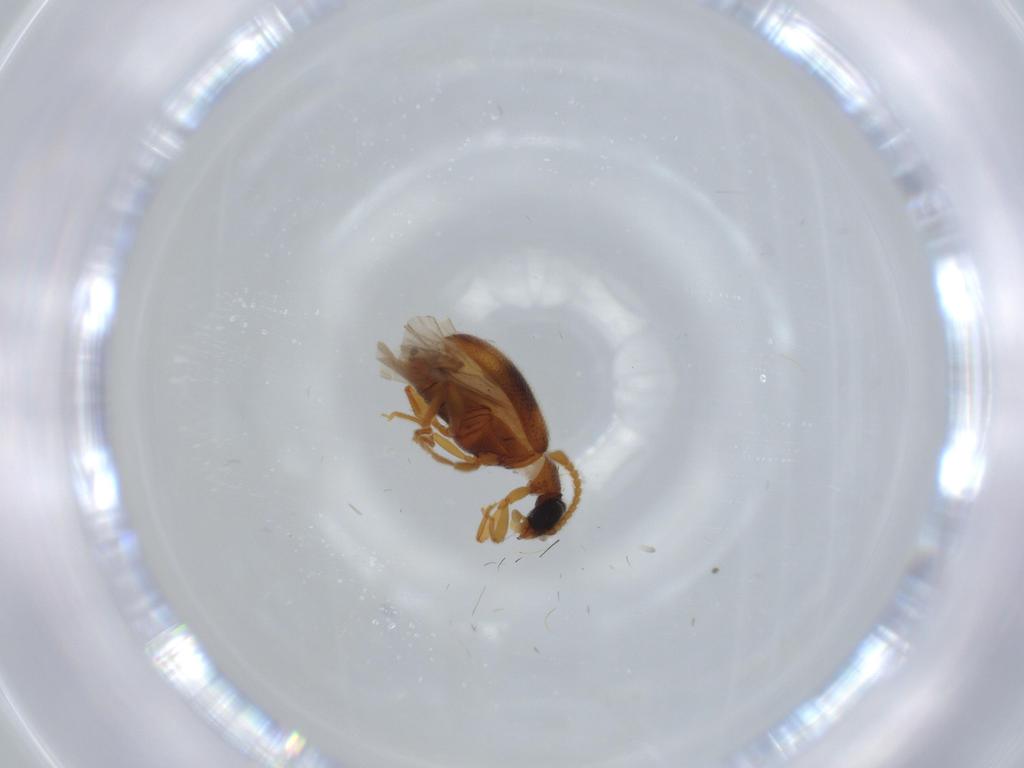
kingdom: Animalia
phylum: Arthropoda
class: Insecta
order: Coleoptera
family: Aderidae
